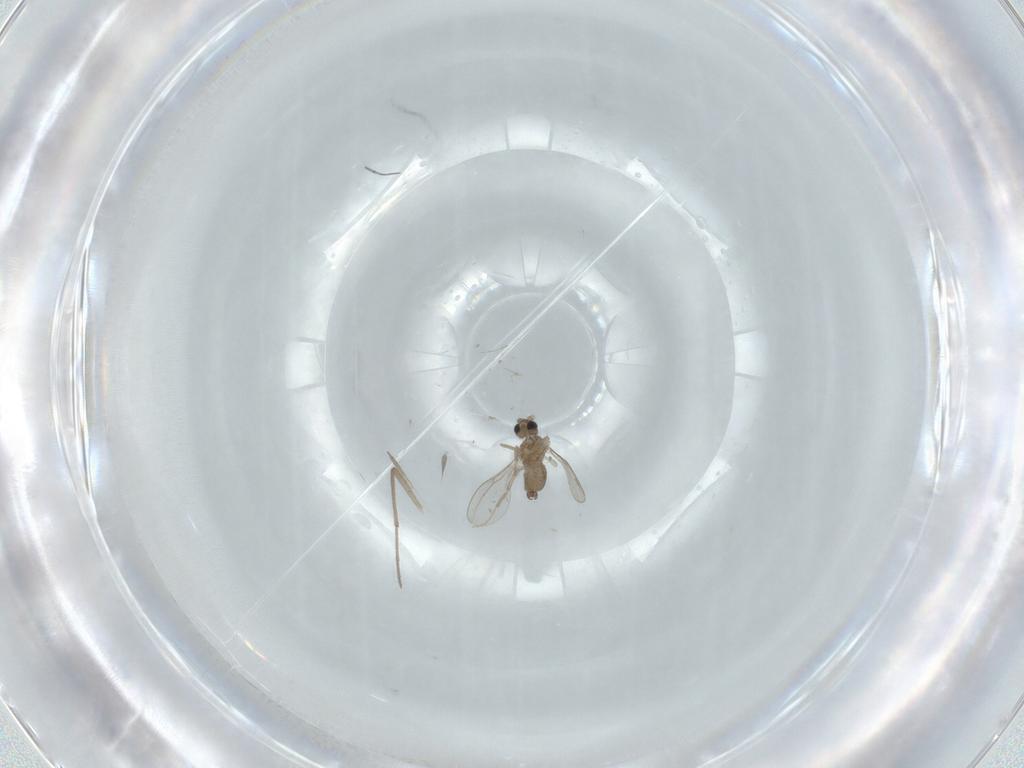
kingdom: Animalia
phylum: Arthropoda
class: Insecta
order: Diptera
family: Chironomidae
